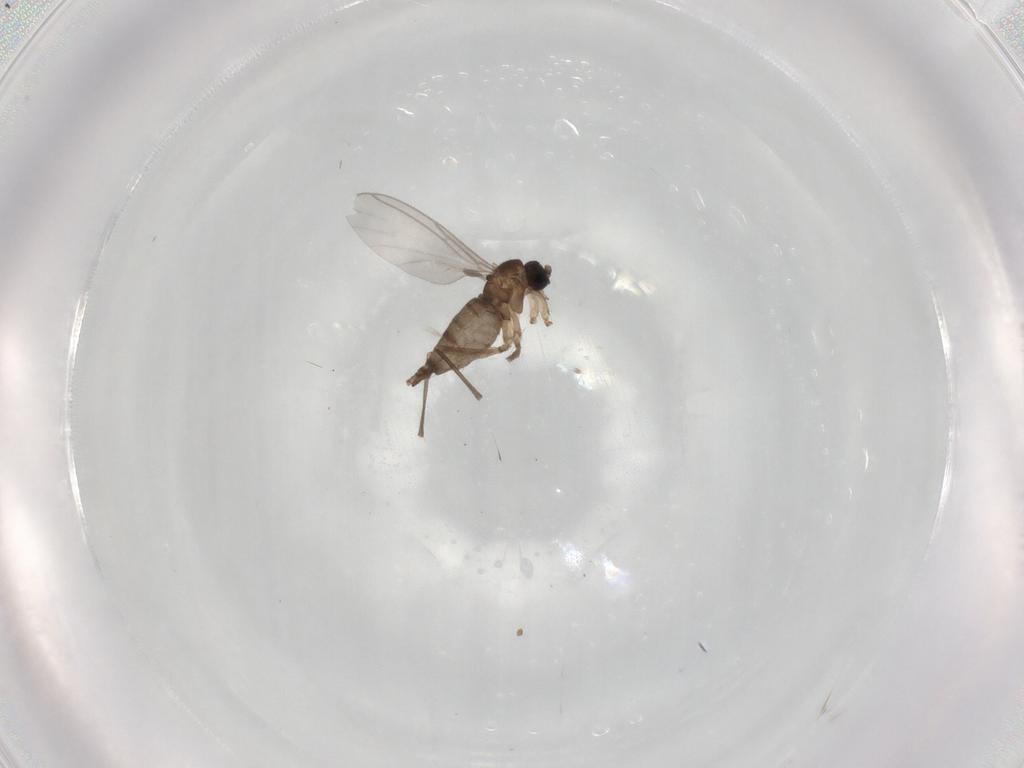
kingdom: Animalia
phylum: Arthropoda
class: Insecta
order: Diptera
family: Sciaridae
